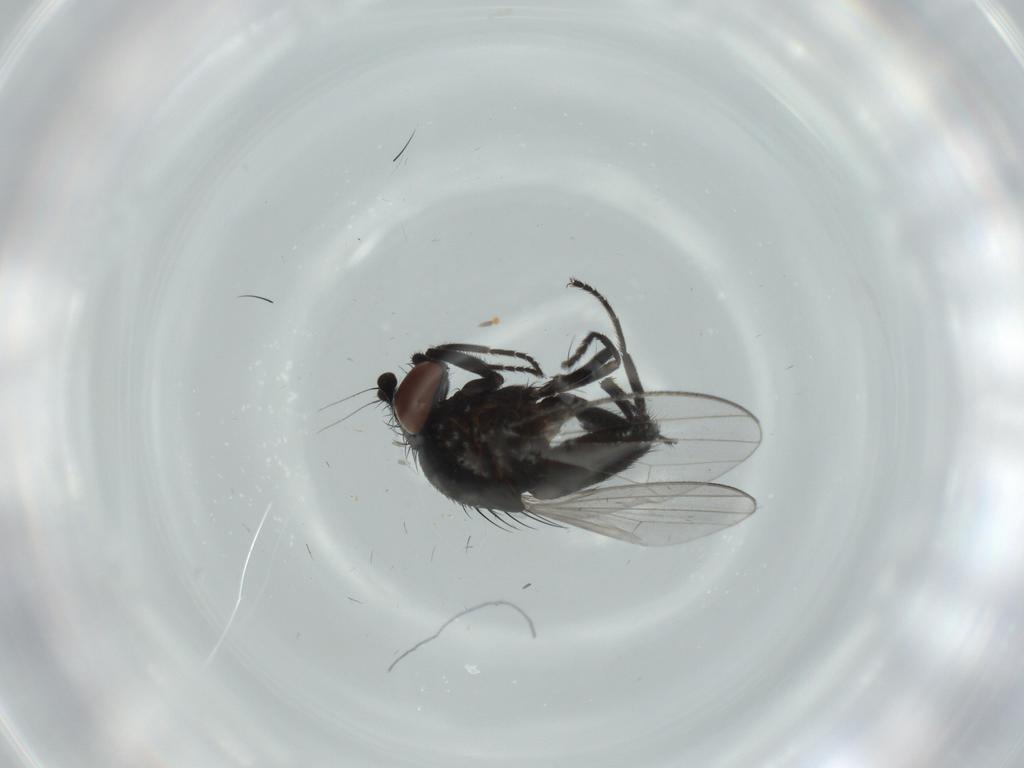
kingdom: Animalia
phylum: Arthropoda
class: Insecta
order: Diptera
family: Milichiidae
